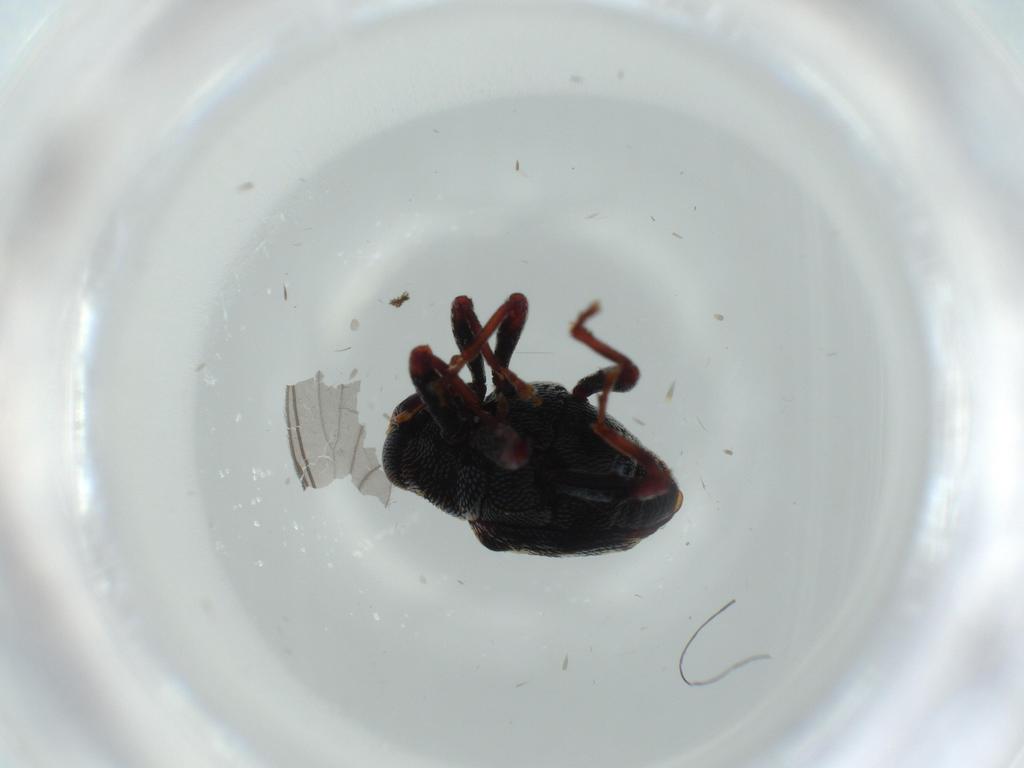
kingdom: Animalia
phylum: Arthropoda
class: Insecta
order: Coleoptera
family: Curculionidae
